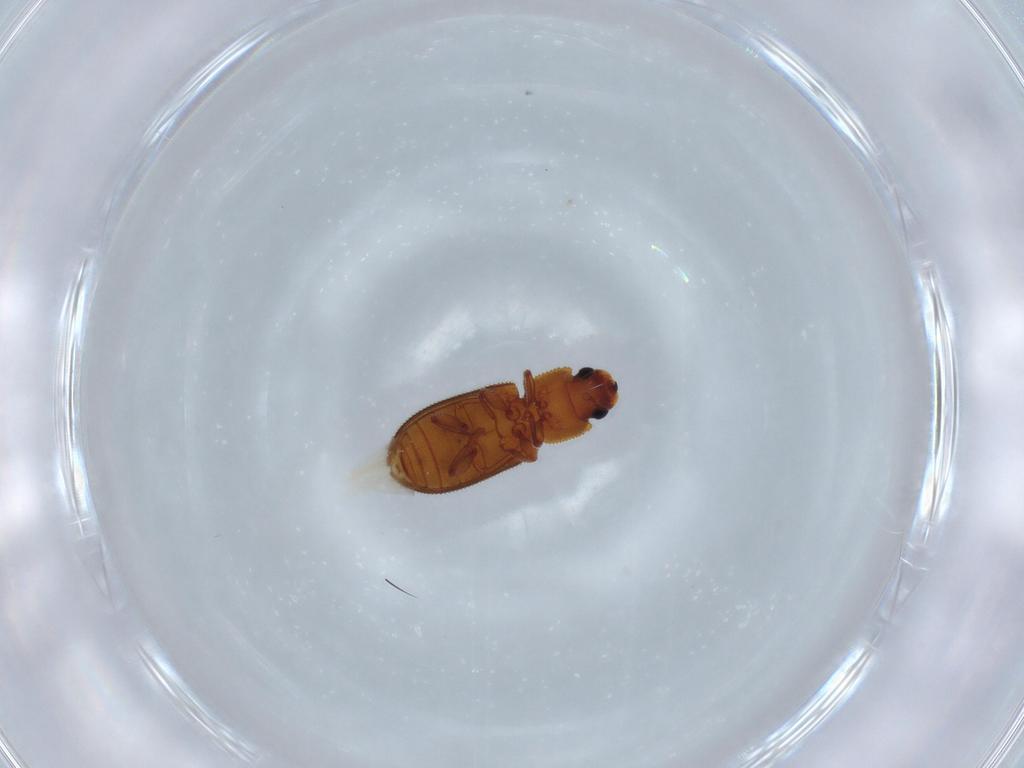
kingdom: Animalia
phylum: Arthropoda
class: Insecta
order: Coleoptera
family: Zopheridae
